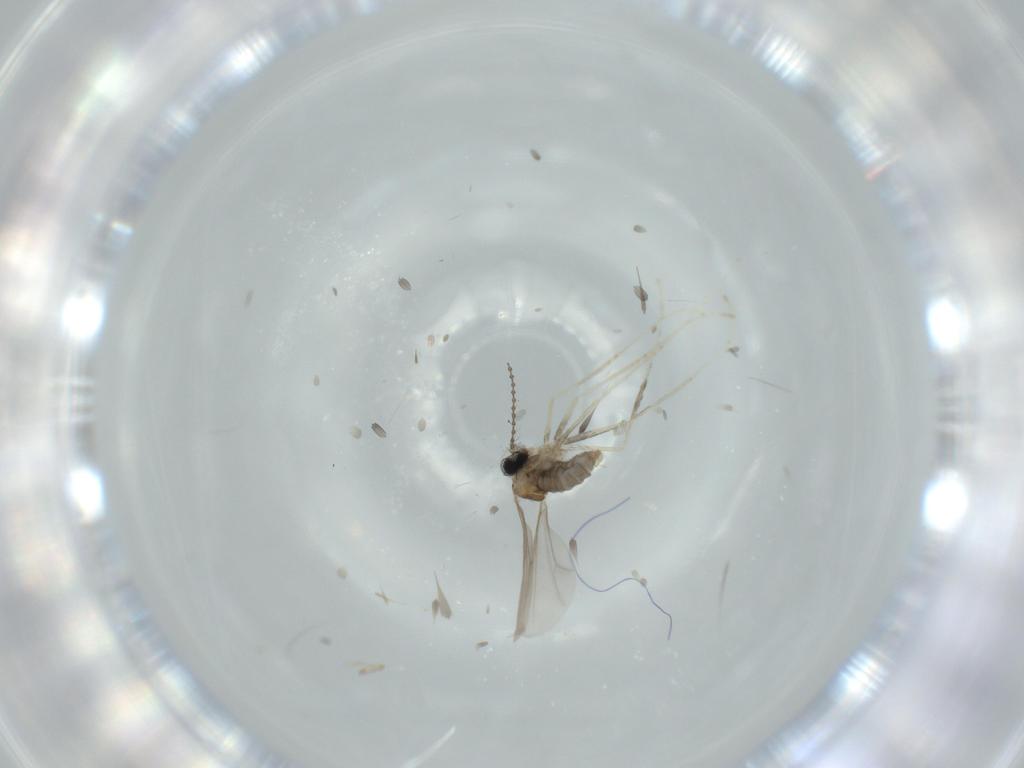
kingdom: Animalia
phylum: Arthropoda
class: Insecta
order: Diptera
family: Cecidomyiidae
